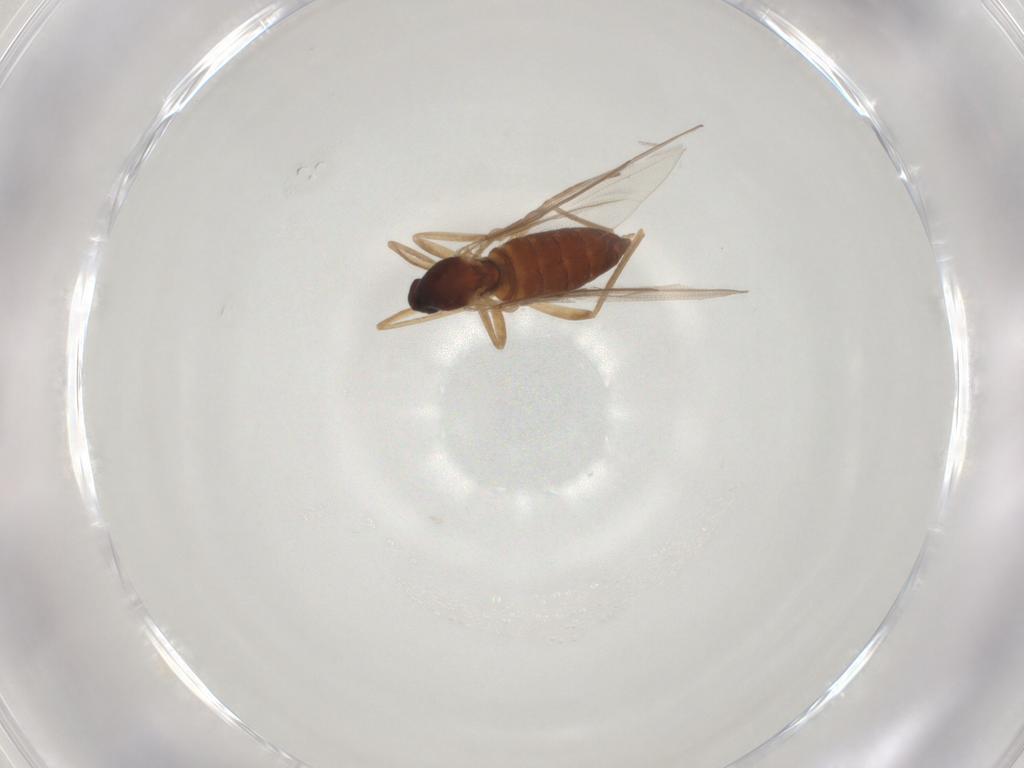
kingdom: Animalia
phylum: Arthropoda
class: Insecta
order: Diptera
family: Cecidomyiidae
